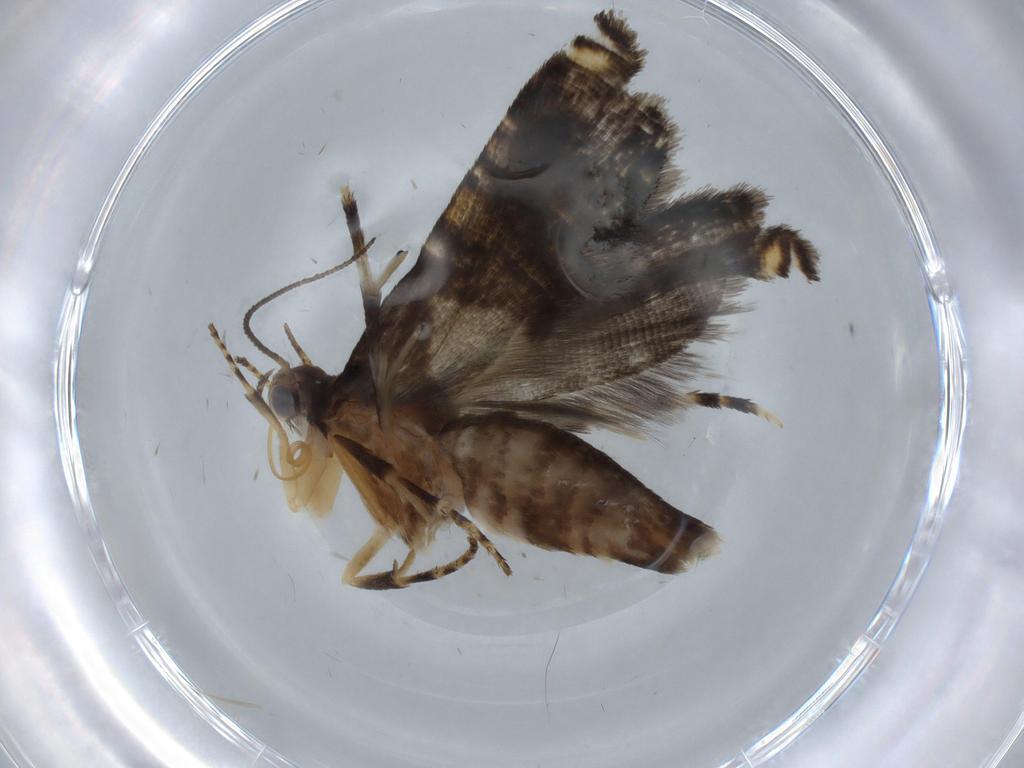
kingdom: Animalia
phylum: Arthropoda
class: Insecta
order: Lepidoptera
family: Glyphipterigidae
